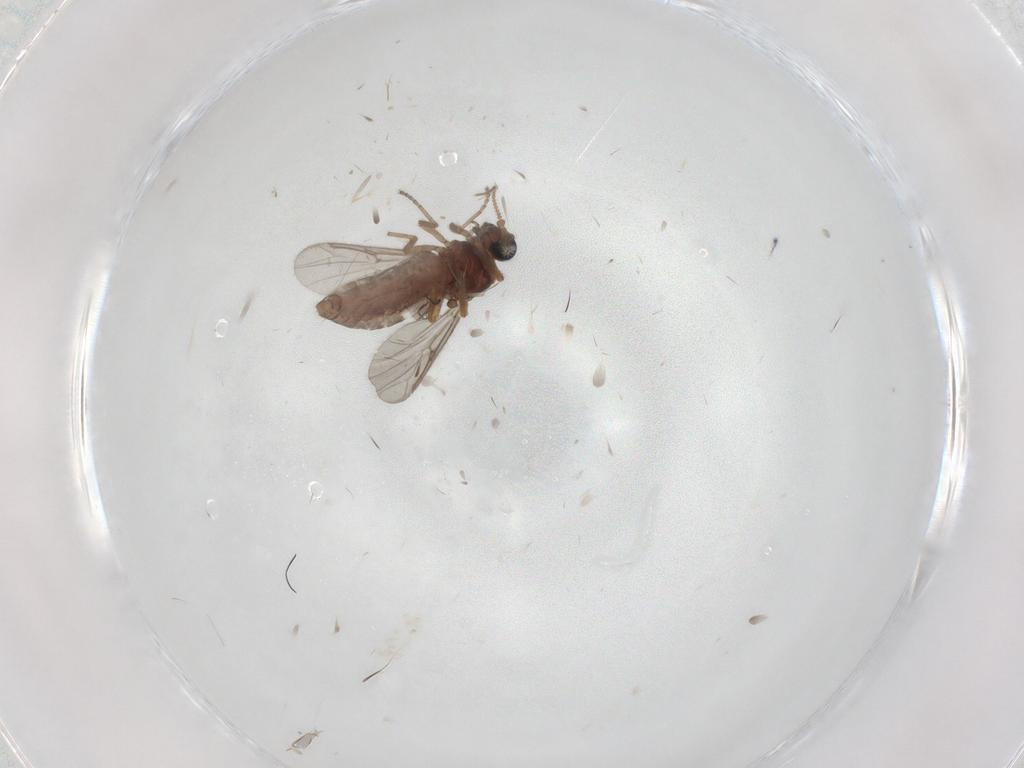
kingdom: Animalia
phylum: Arthropoda
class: Insecta
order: Diptera
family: Ceratopogonidae
